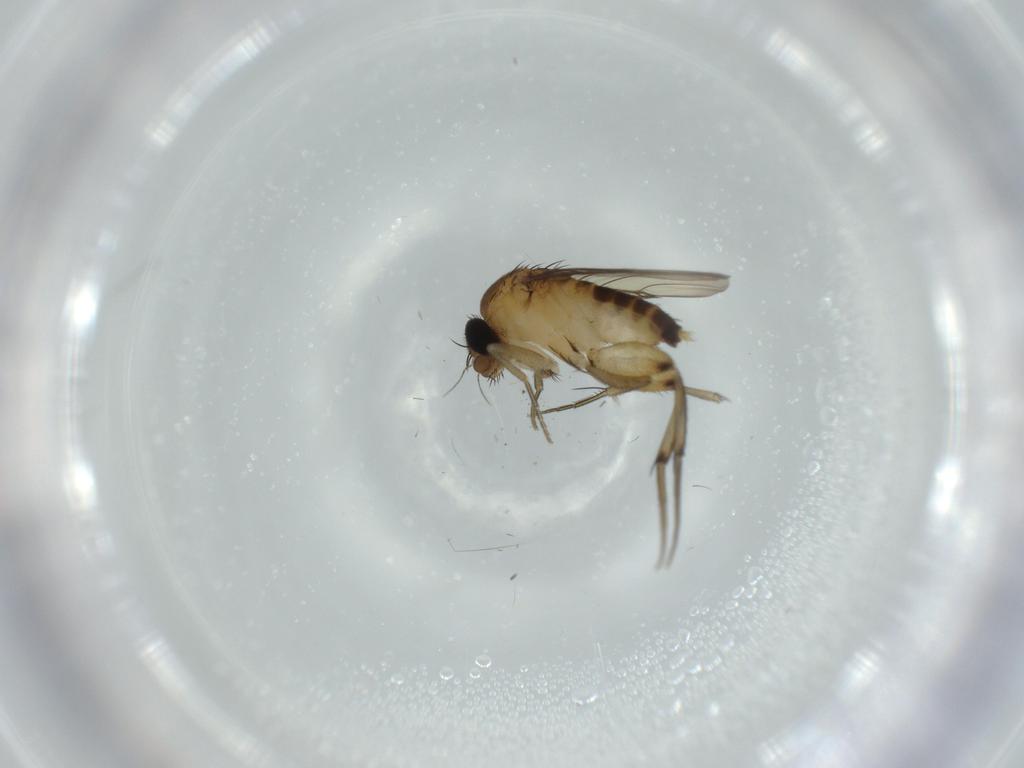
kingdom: Animalia
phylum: Arthropoda
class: Insecta
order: Diptera
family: Phoridae
